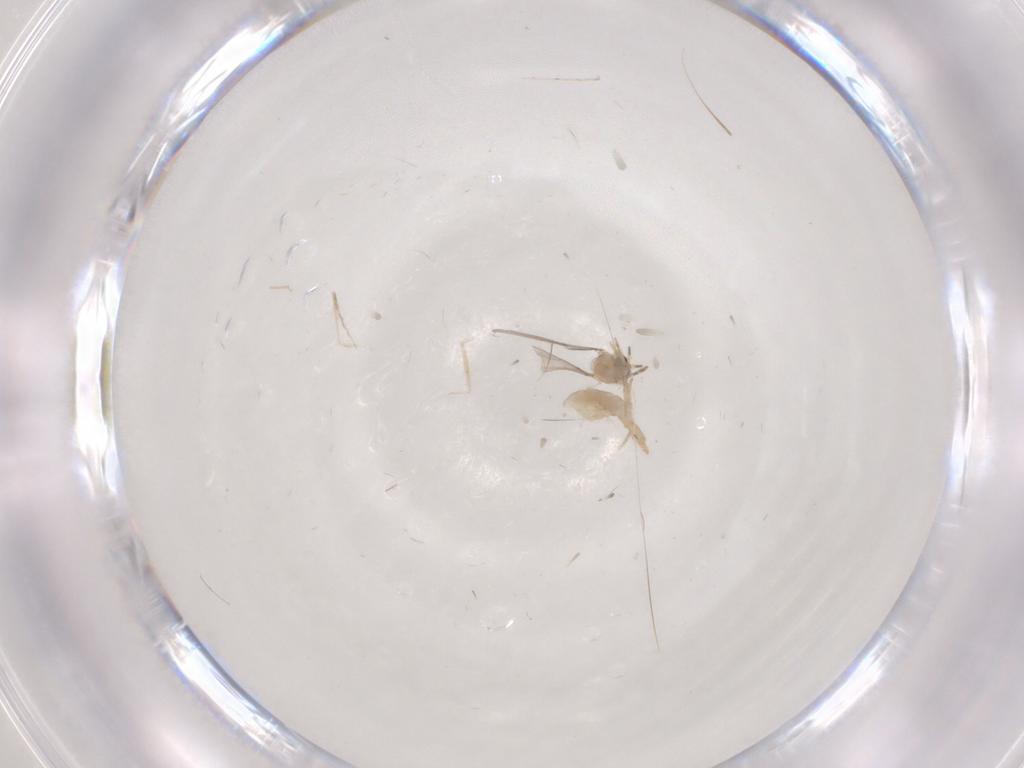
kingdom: Animalia
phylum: Arthropoda
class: Insecta
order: Diptera
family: Cecidomyiidae
